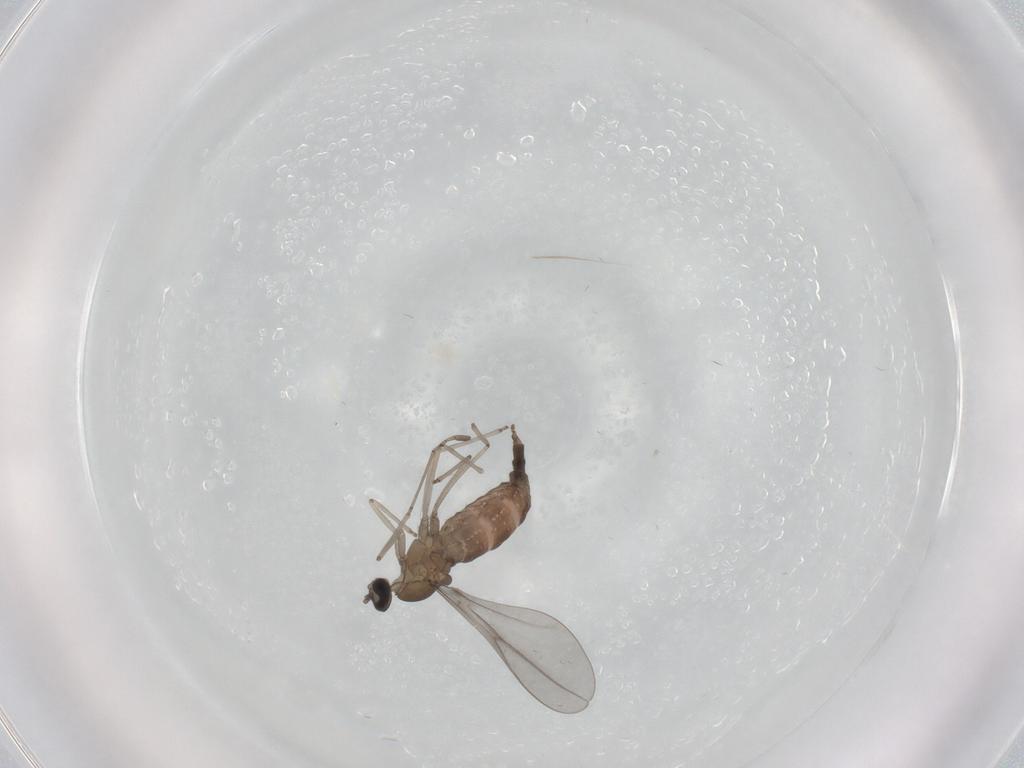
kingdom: Animalia
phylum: Arthropoda
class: Insecta
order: Diptera
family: Cecidomyiidae
